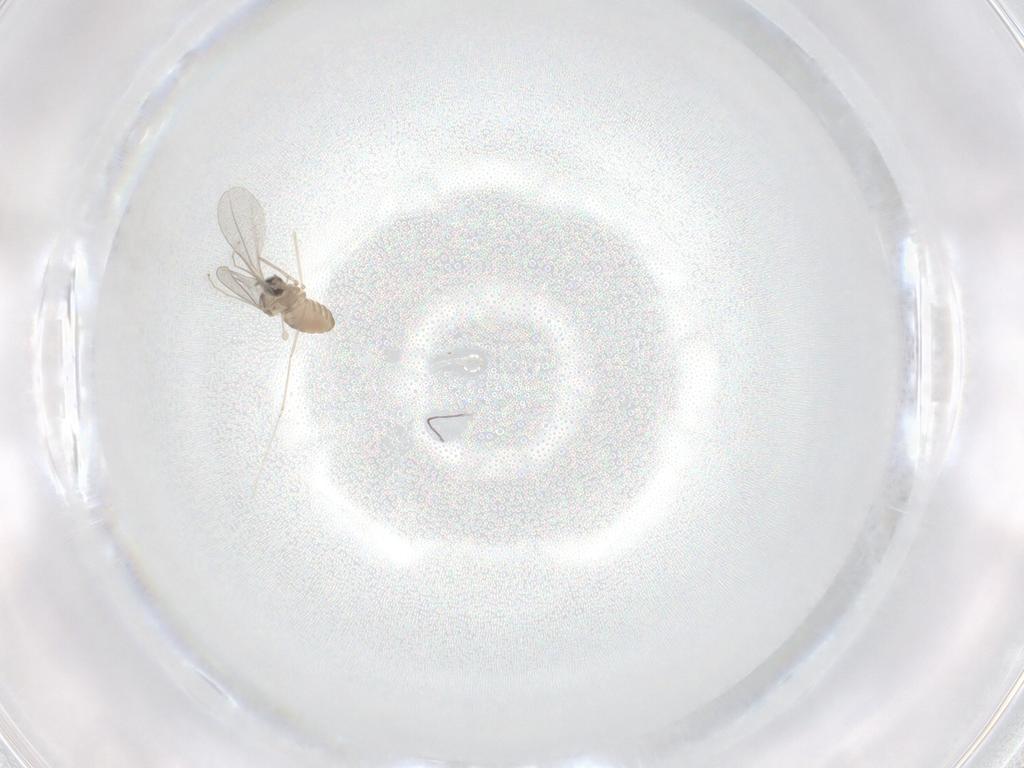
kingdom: Animalia
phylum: Arthropoda
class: Insecta
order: Diptera
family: Cecidomyiidae
